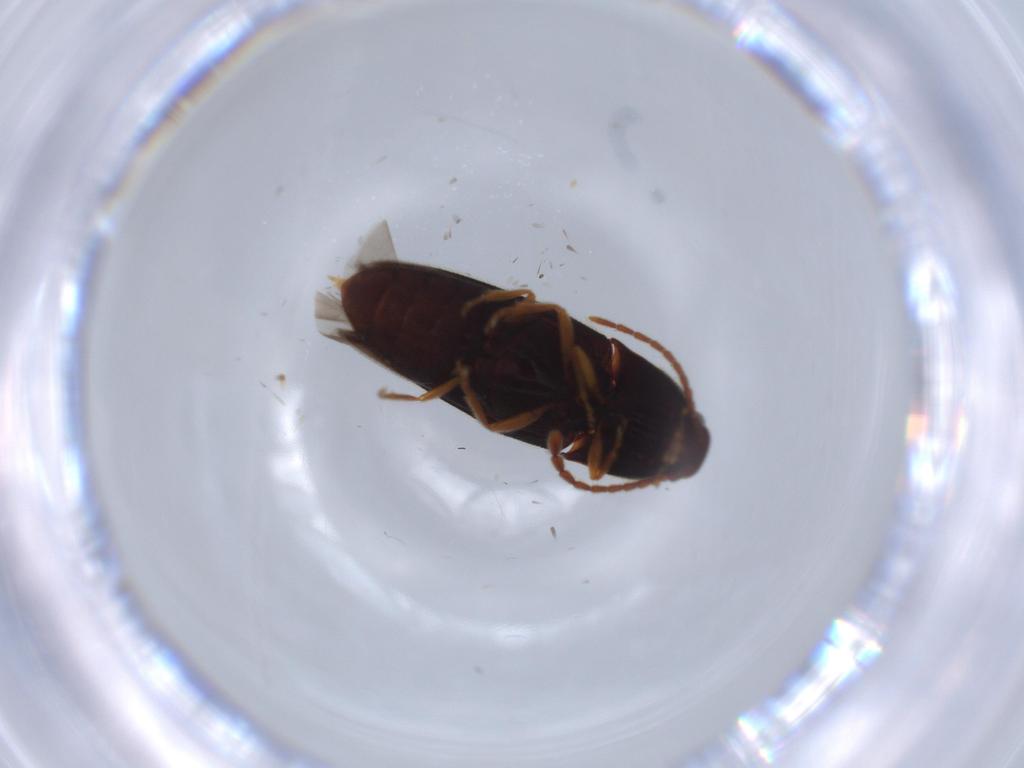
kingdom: Animalia
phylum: Arthropoda
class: Insecta
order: Coleoptera
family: Elateridae
